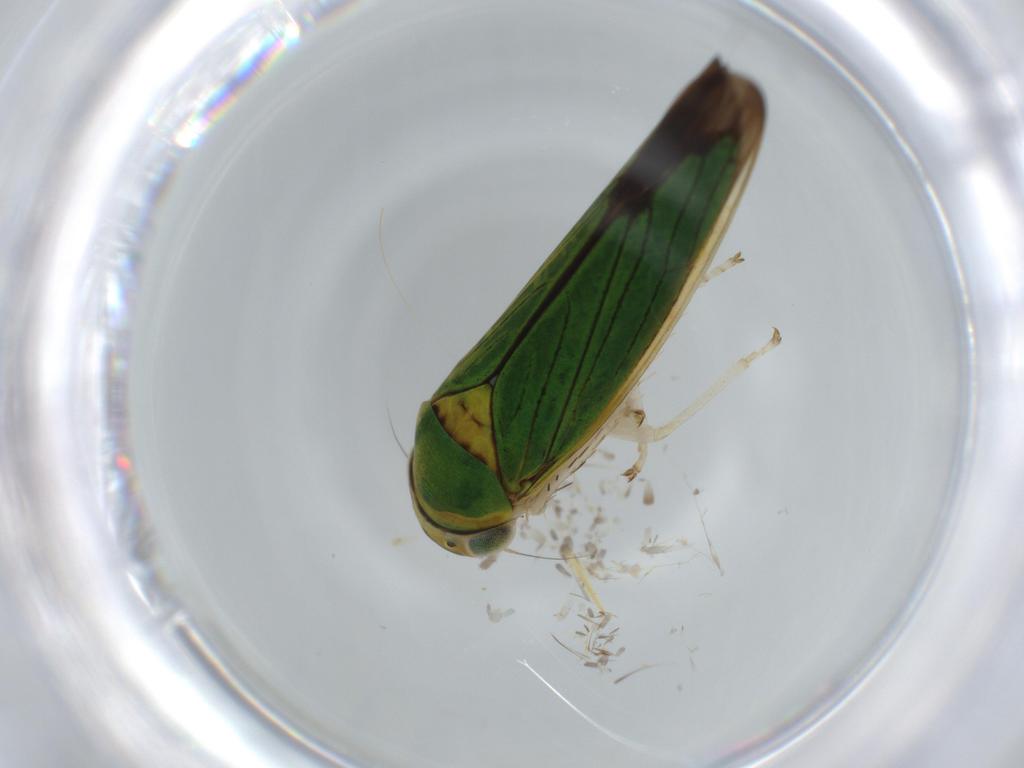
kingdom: Animalia
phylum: Arthropoda
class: Insecta
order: Hemiptera
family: Cicadellidae
